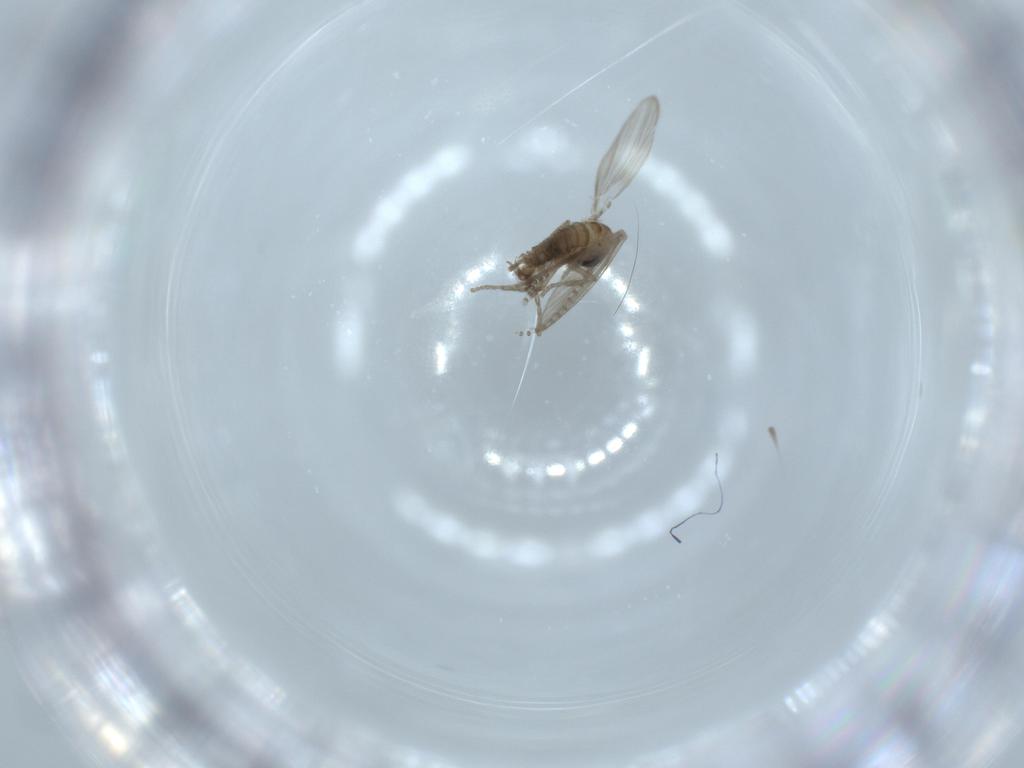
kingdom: Animalia
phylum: Arthropoda
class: Insecta
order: Diptera
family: Psychodidae
